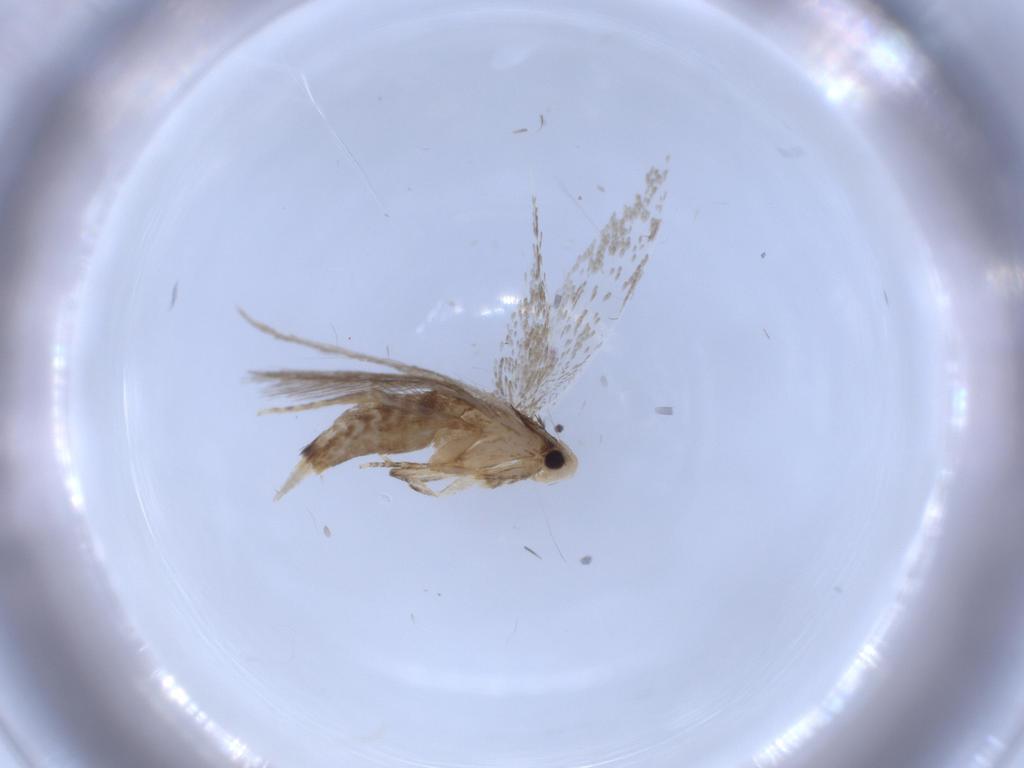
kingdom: Animalia
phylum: Arthropoda
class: Insecta
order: Lepidoptera
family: Tineidae
